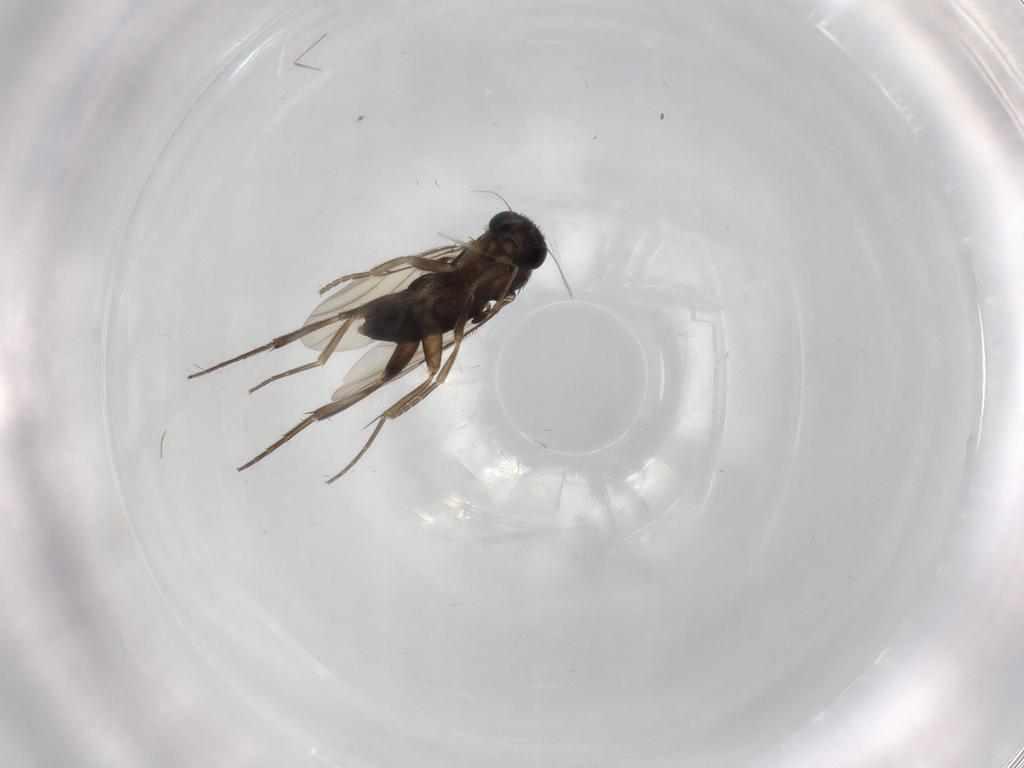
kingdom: Animalia
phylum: Arthropoda
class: Insecta
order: Diptera
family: Phoridae
